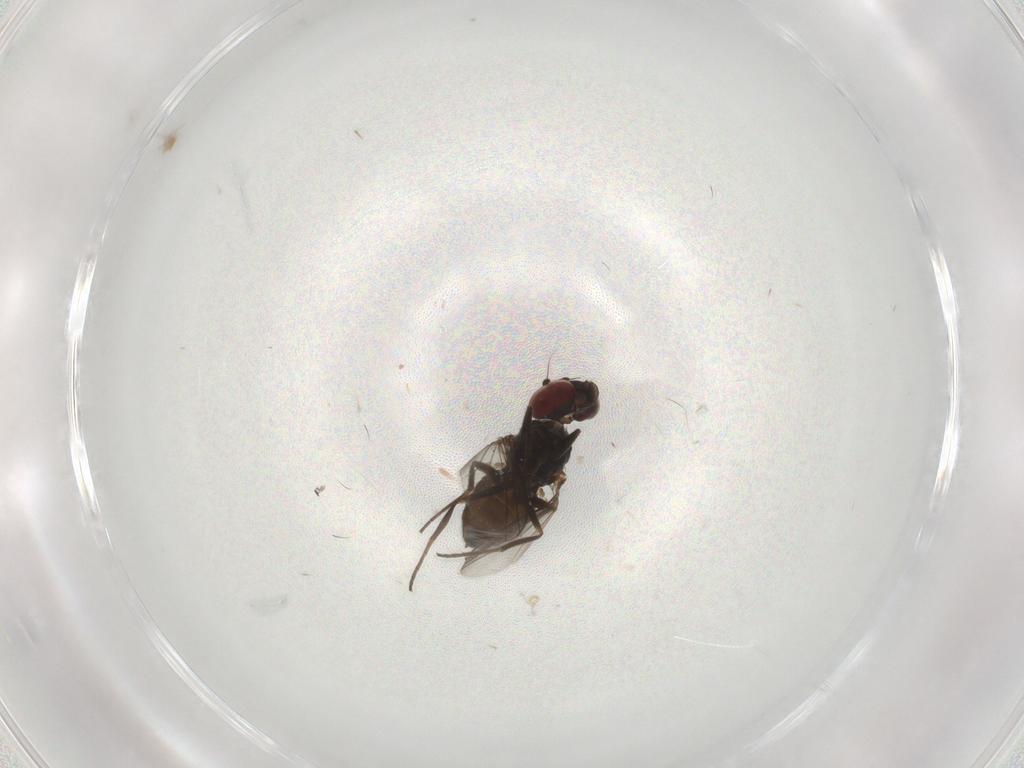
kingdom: Animalia
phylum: Arthropoda
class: Insecta
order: Diptera
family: Dolichopodidae
